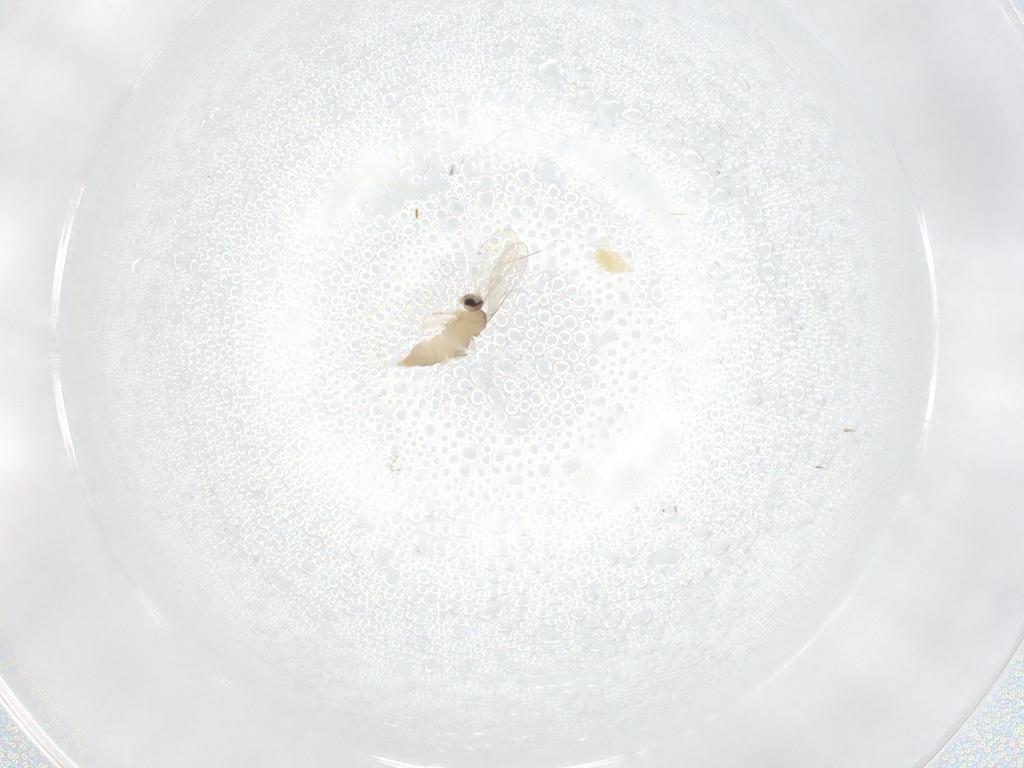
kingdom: Animalia
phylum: Arthropoda
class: Insecta
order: Diptera
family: Cecidomyiidae
